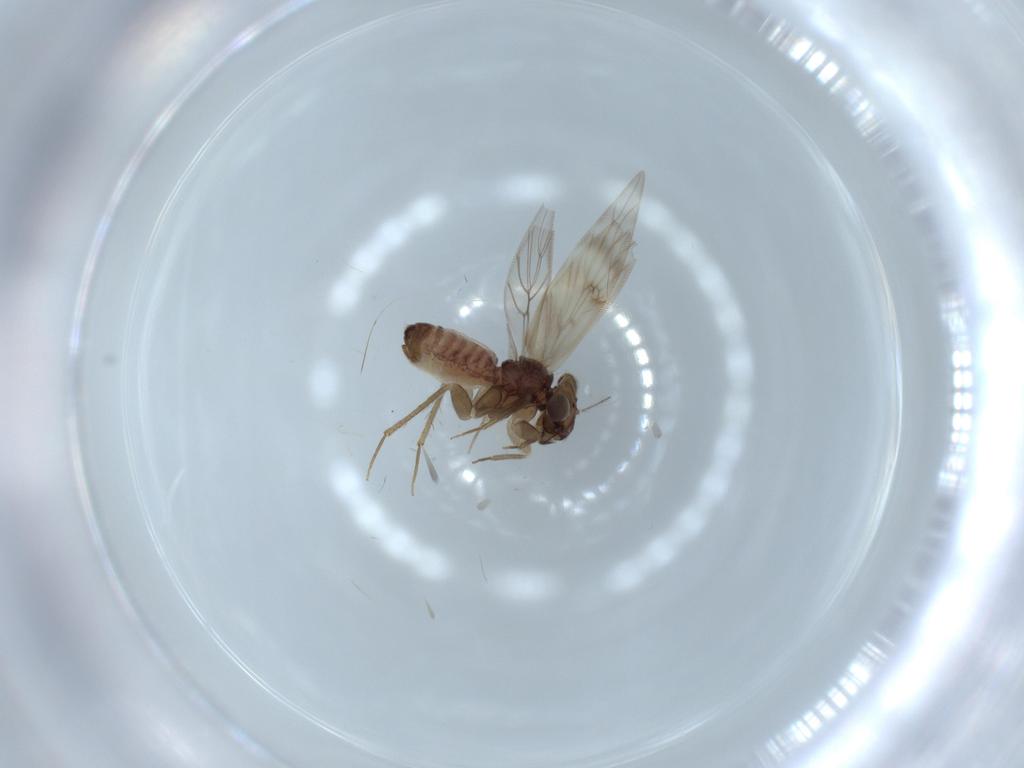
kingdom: Animalia
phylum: Arthropoda
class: Insecta
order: Psocodea
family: Lepidopsocidae
